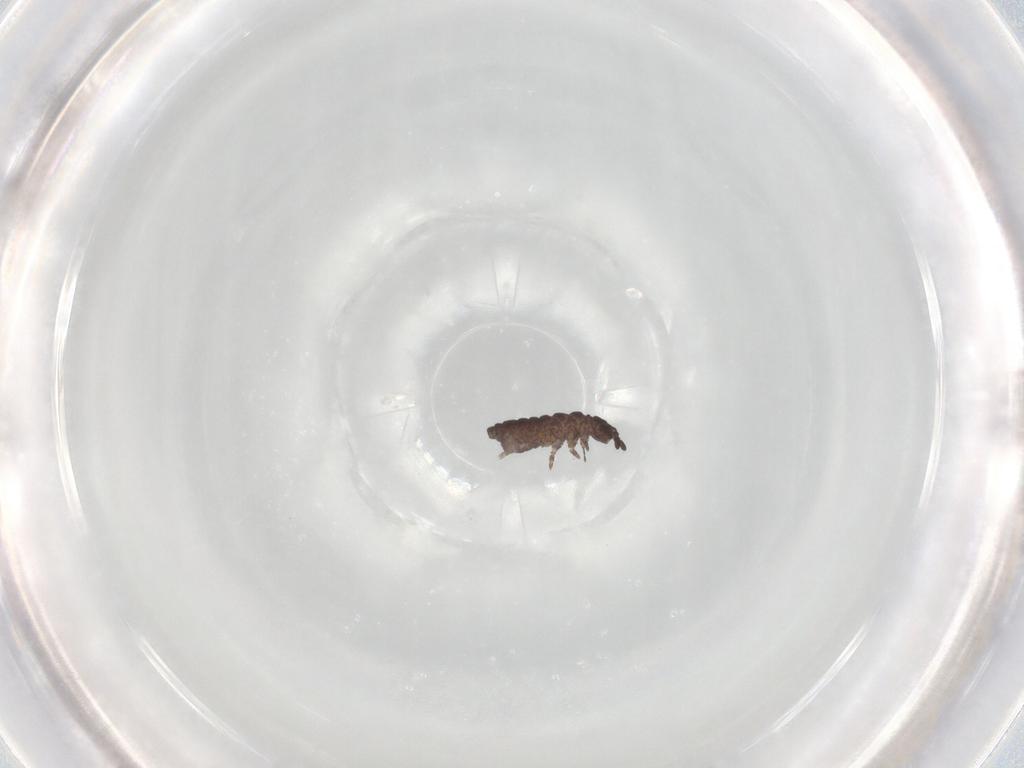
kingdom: Animalia
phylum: Arthropoda
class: Collembola
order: Poduromorpha
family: Hypogastruridae
